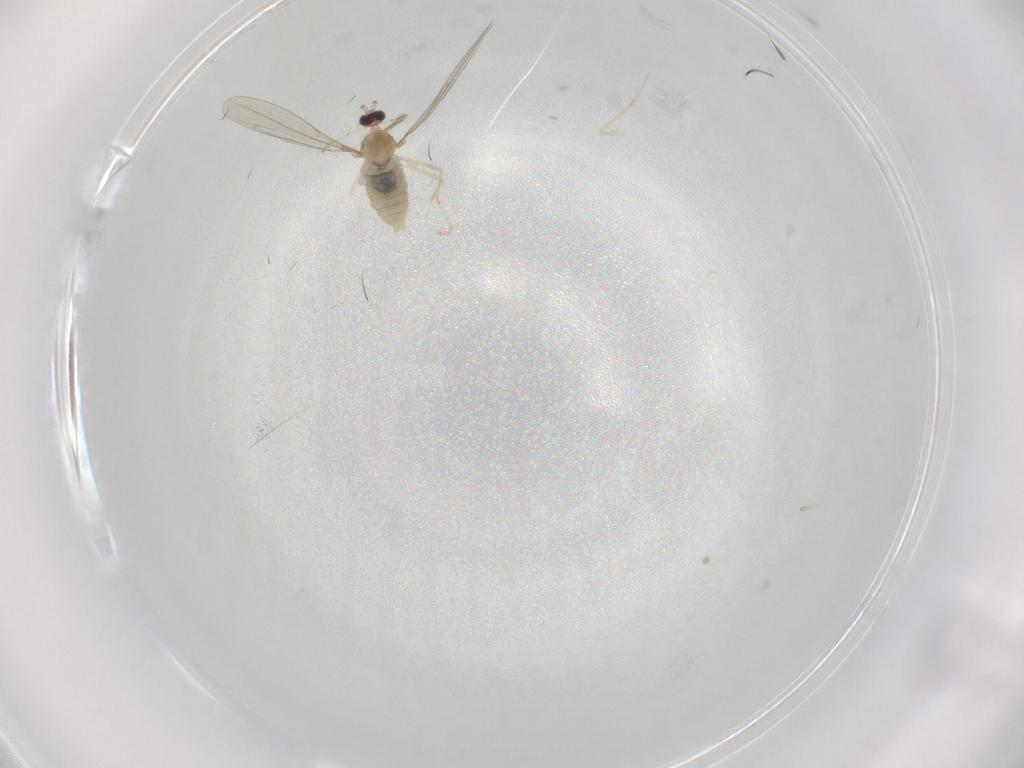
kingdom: Animalia
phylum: Arthropoda
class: Insecta
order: Diptera
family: Cecidomyiidae
